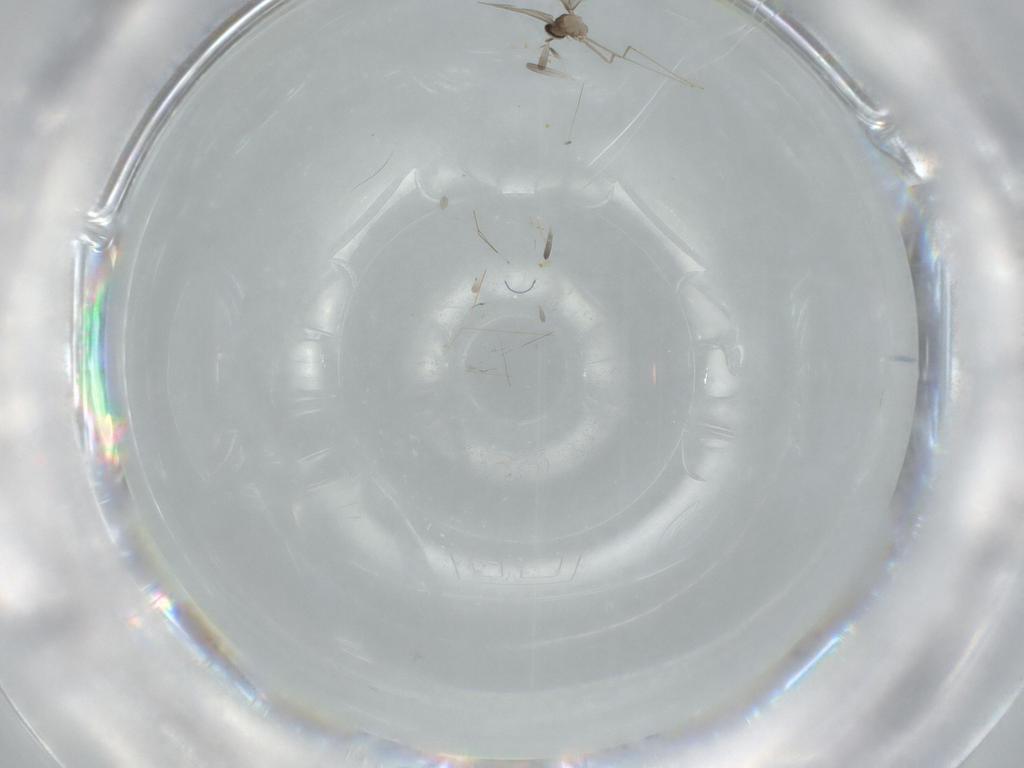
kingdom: Animalia
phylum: Arthropoda
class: Insecta
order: Diptera
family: Cecidomyiidae
